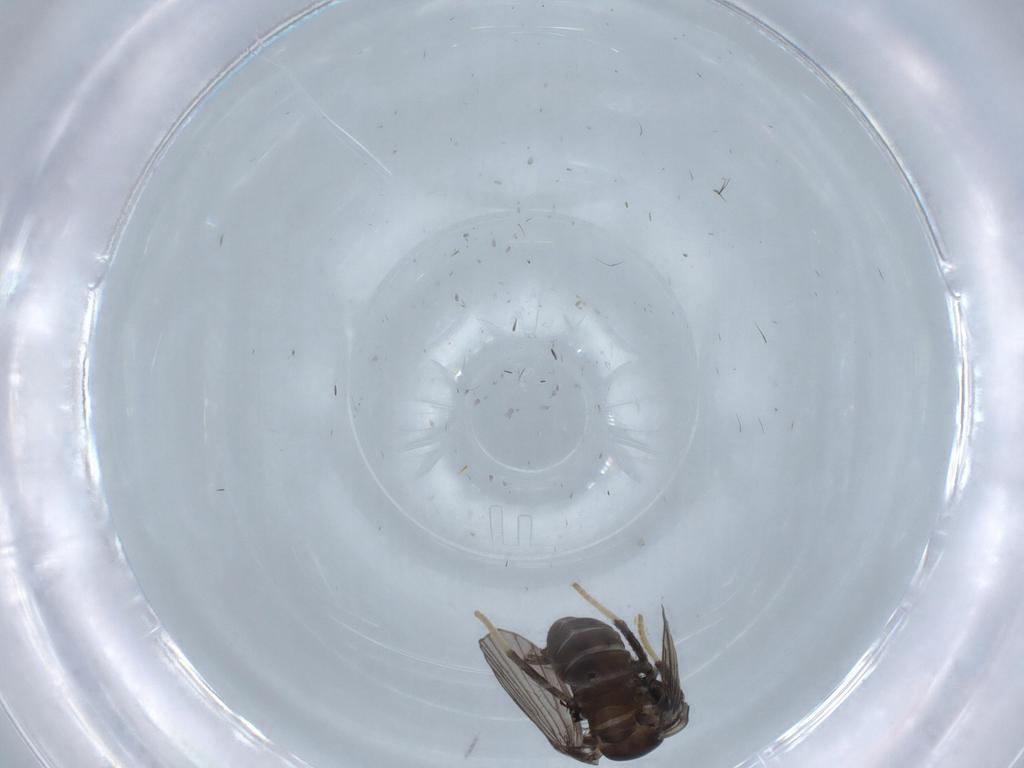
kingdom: Animalia
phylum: Arthropoda
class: Insecta
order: Diptera
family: Psychodidae
